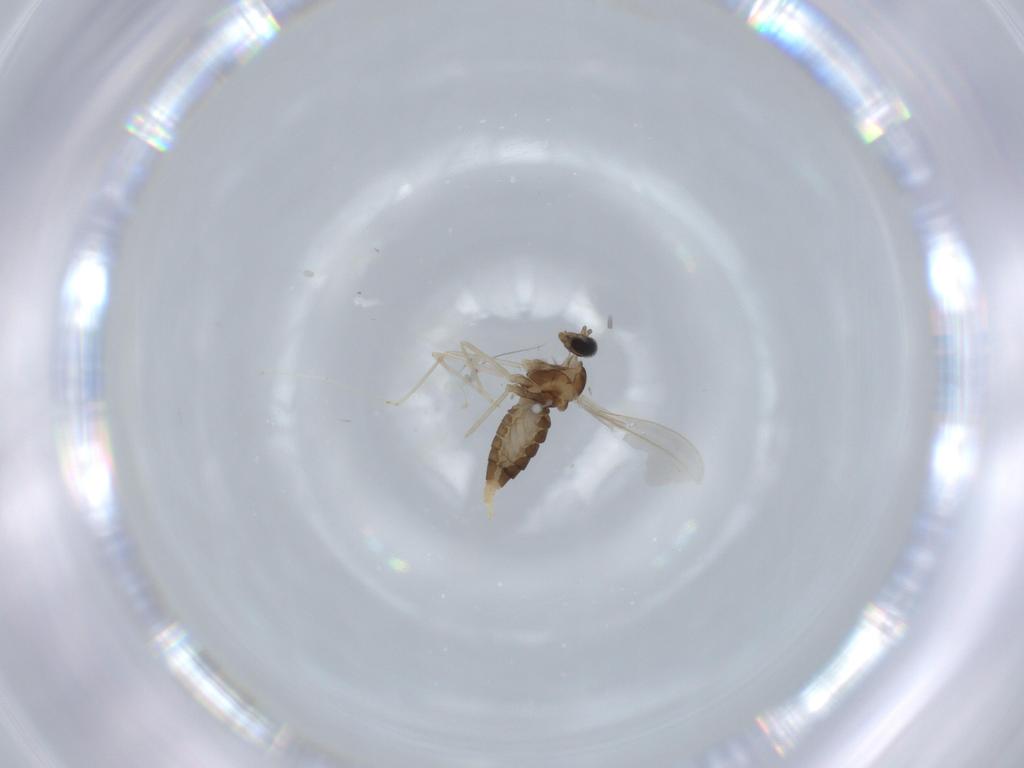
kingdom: Animalia
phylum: Arthropoda
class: Insecta
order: Diptera
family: Cecidomyiidae
